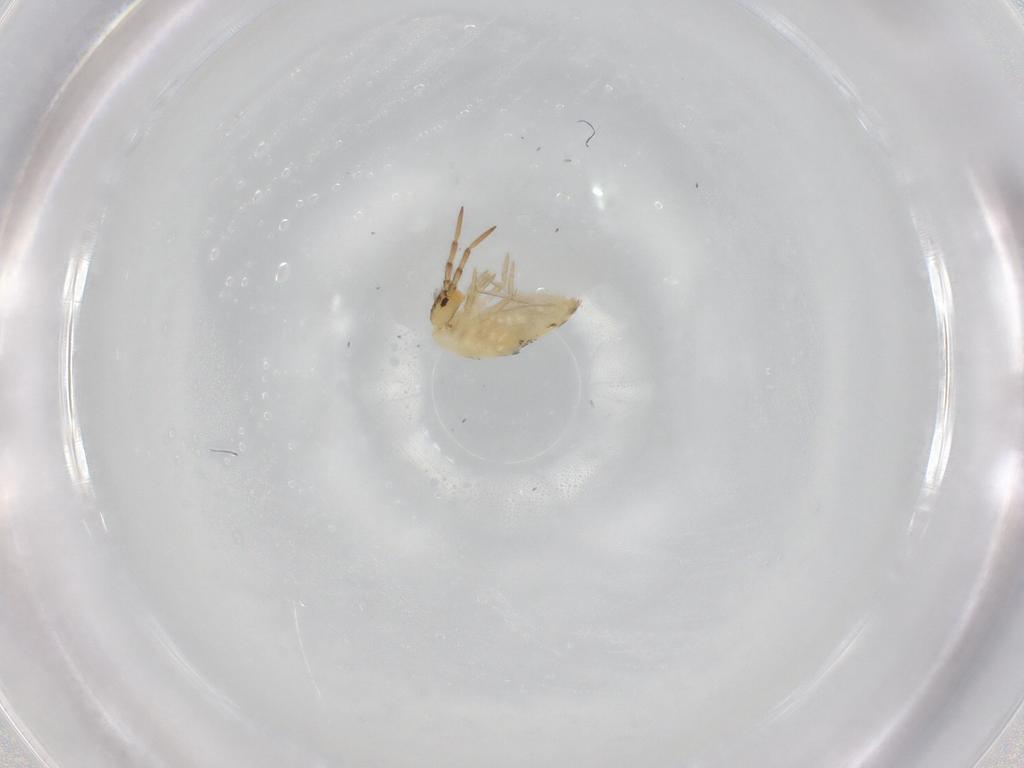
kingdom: Animalia
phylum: Arthropoda
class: Collembola
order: Entomobryomorpha
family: Entomobryidae
